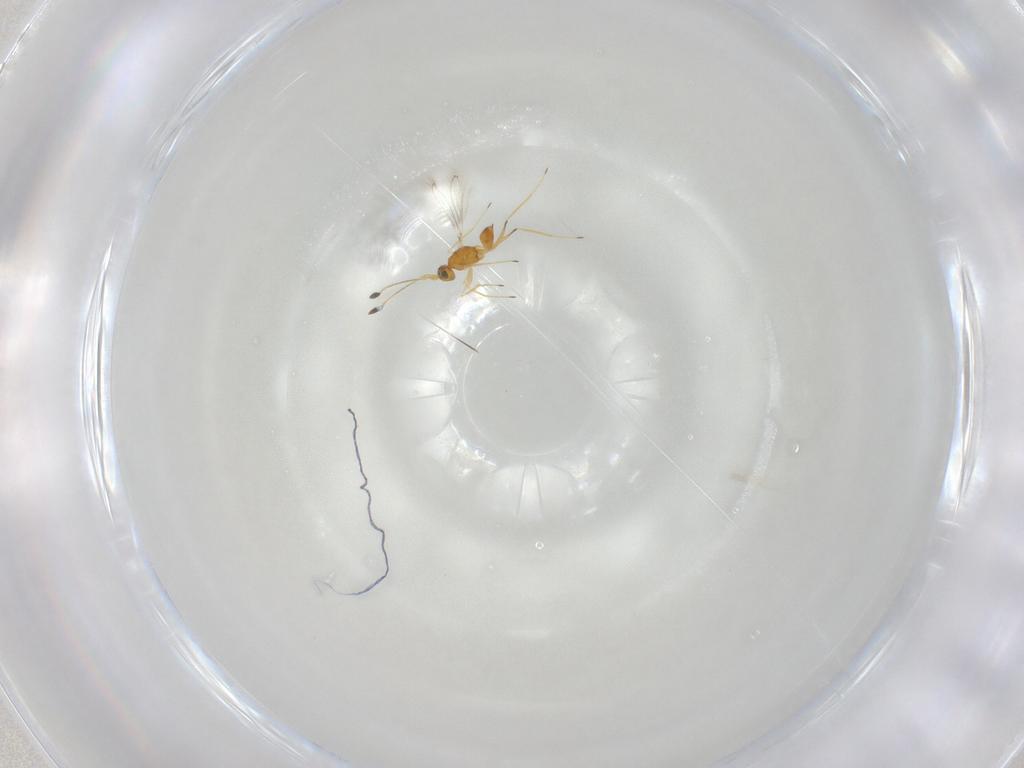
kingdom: Animalia
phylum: Arthropoda
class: Insecta
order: Hymenoptera
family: Mymaridae
